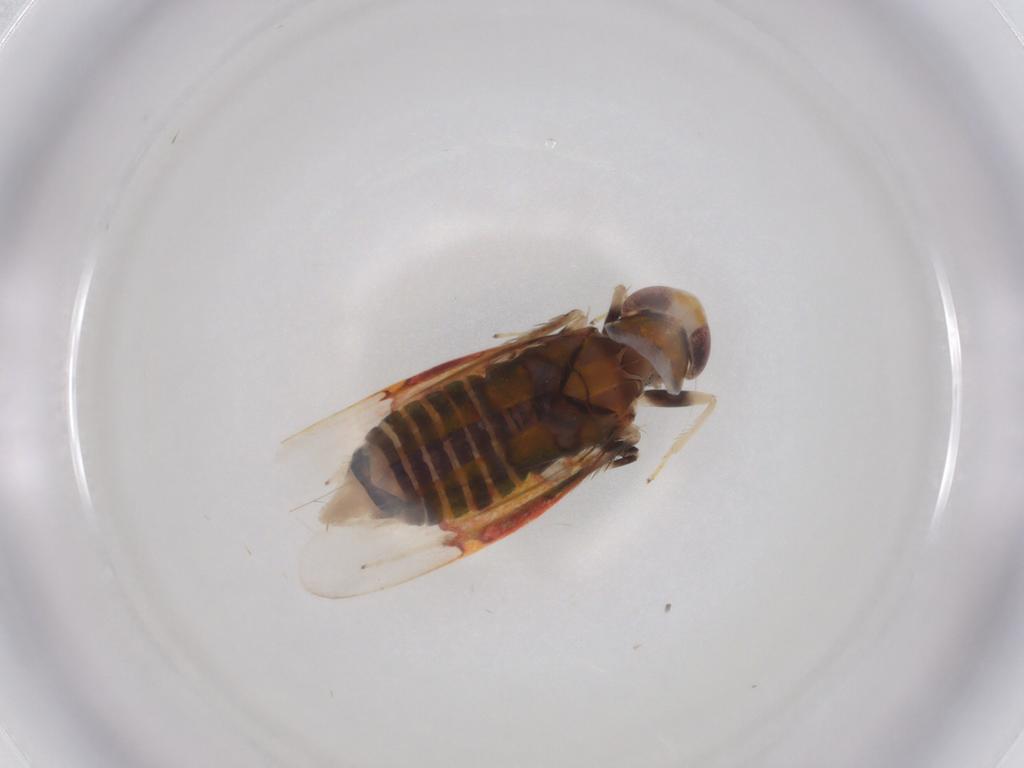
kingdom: Animalia
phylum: Arthropoda
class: Insecta
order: Hemiptera
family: Cicadellidae
